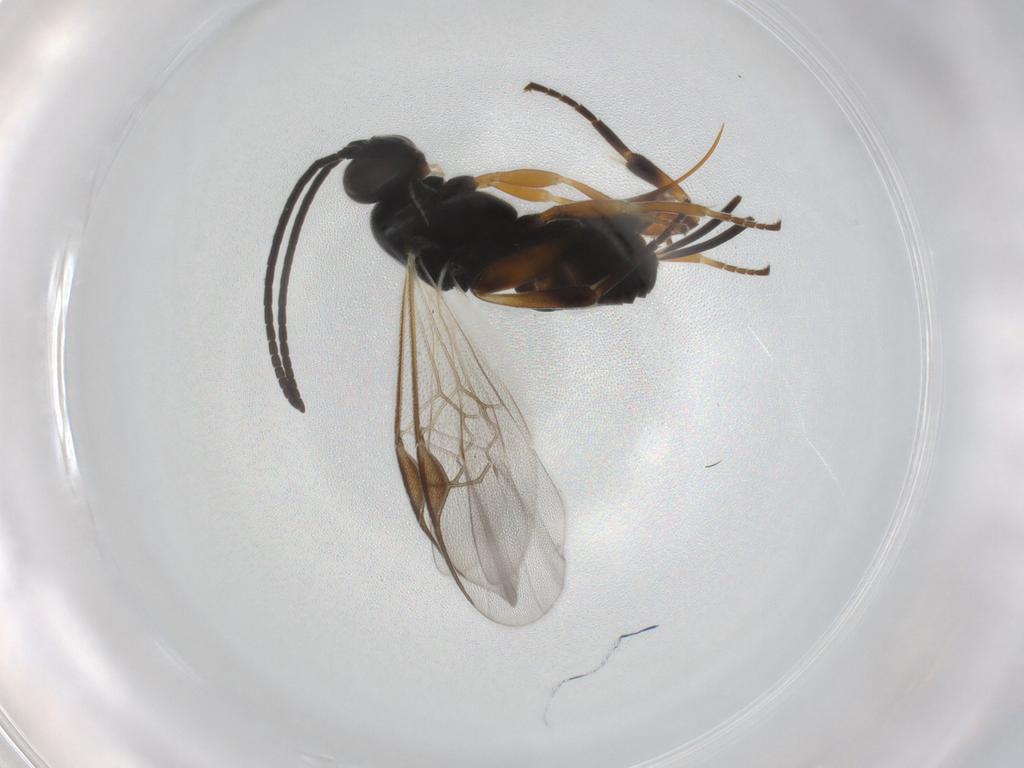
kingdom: Animalia
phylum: Arthropoda
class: Insecta
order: Hymenoptera
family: Braconidae
